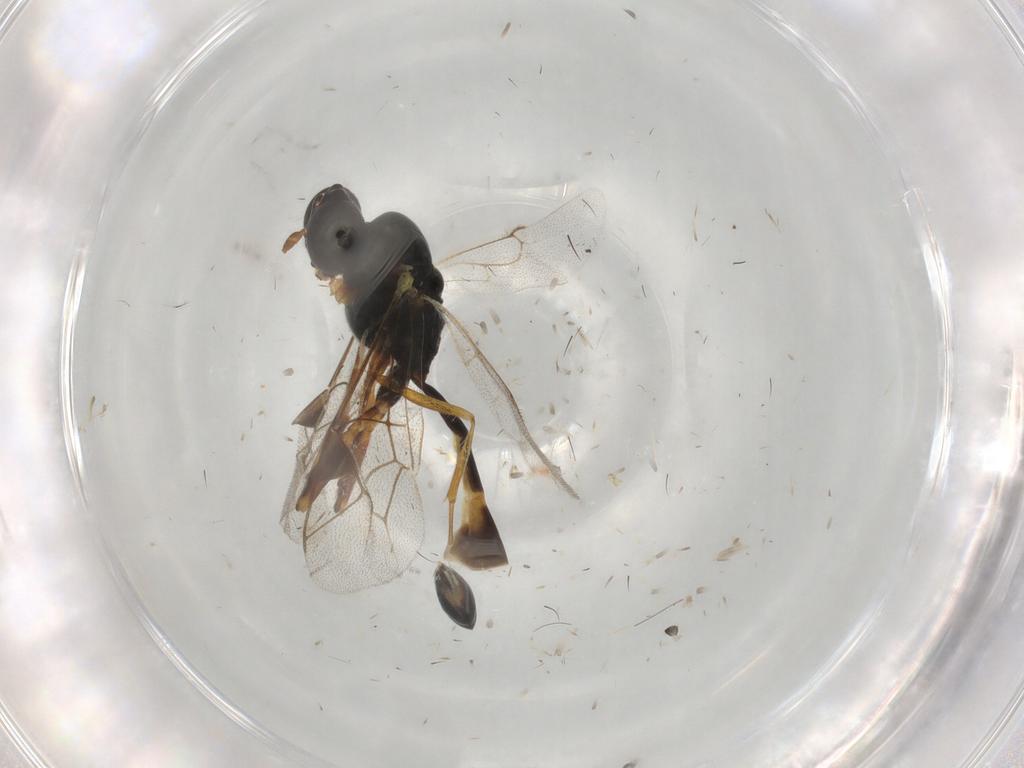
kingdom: Animalia
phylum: Arthropoda
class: Insecta
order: Hymenoptera
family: Ichneumonidae
